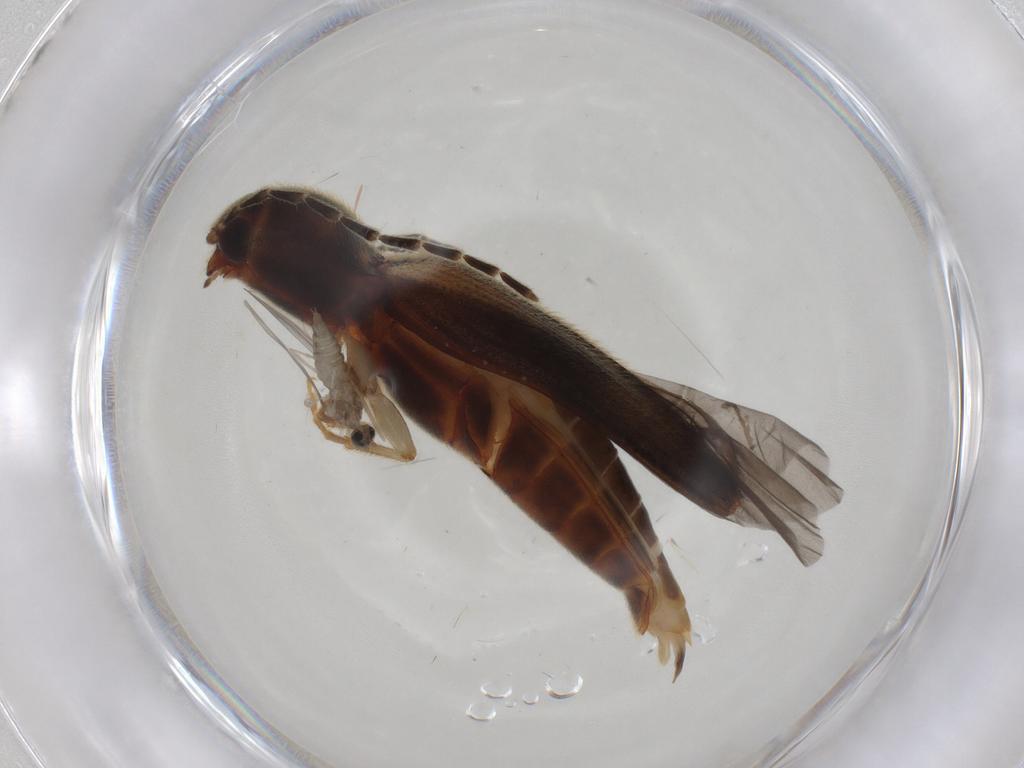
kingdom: Animalia
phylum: Arthropoda
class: Insecta
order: Coleoptera
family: Elateridae
